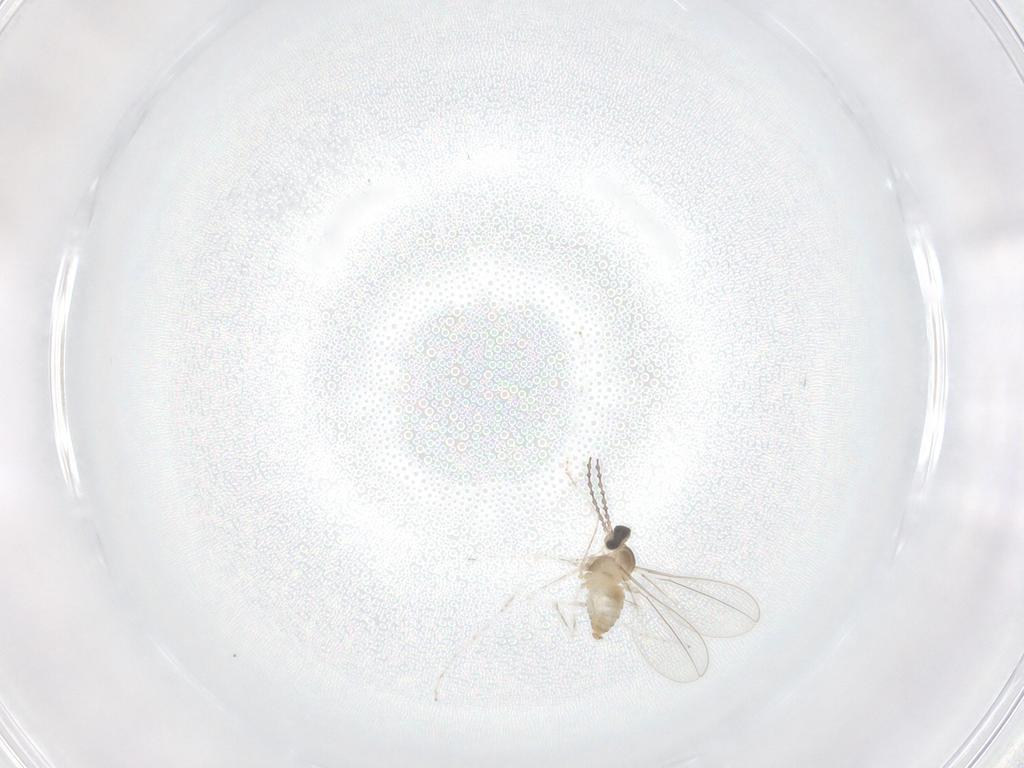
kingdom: Animalia
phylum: Arthropoda
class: Insecta
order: Diptera
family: Cecidomyiidae
